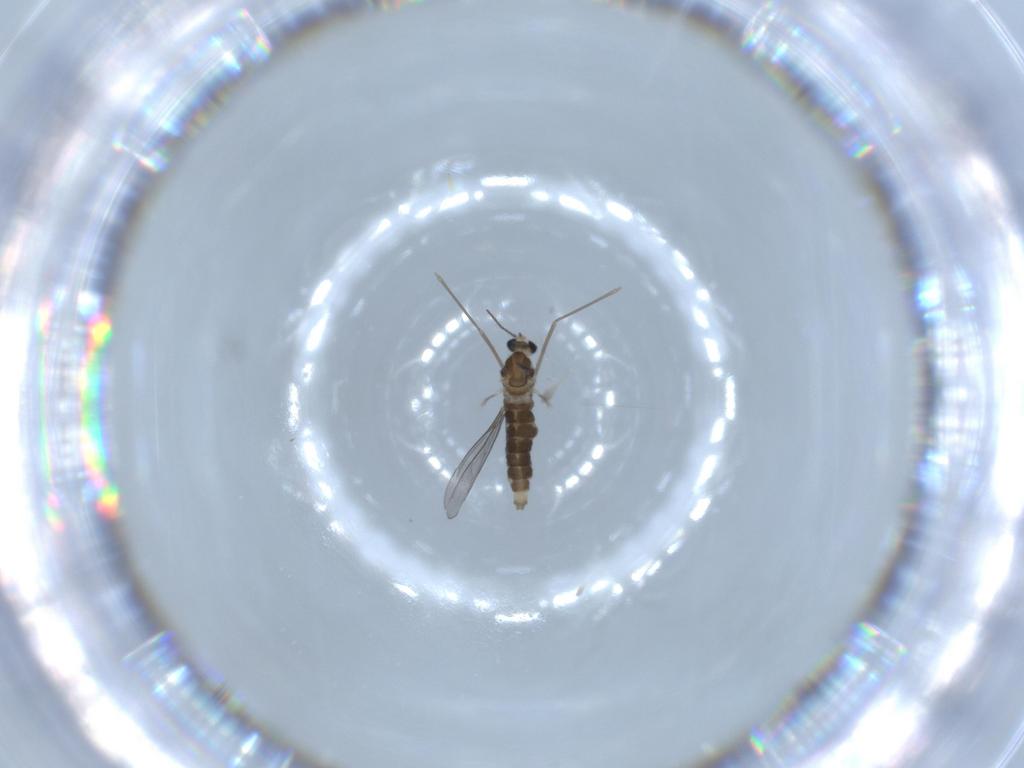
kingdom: Animalia
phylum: Arthropoda
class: Insecta
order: Diptera
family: Cecidomyiidae
